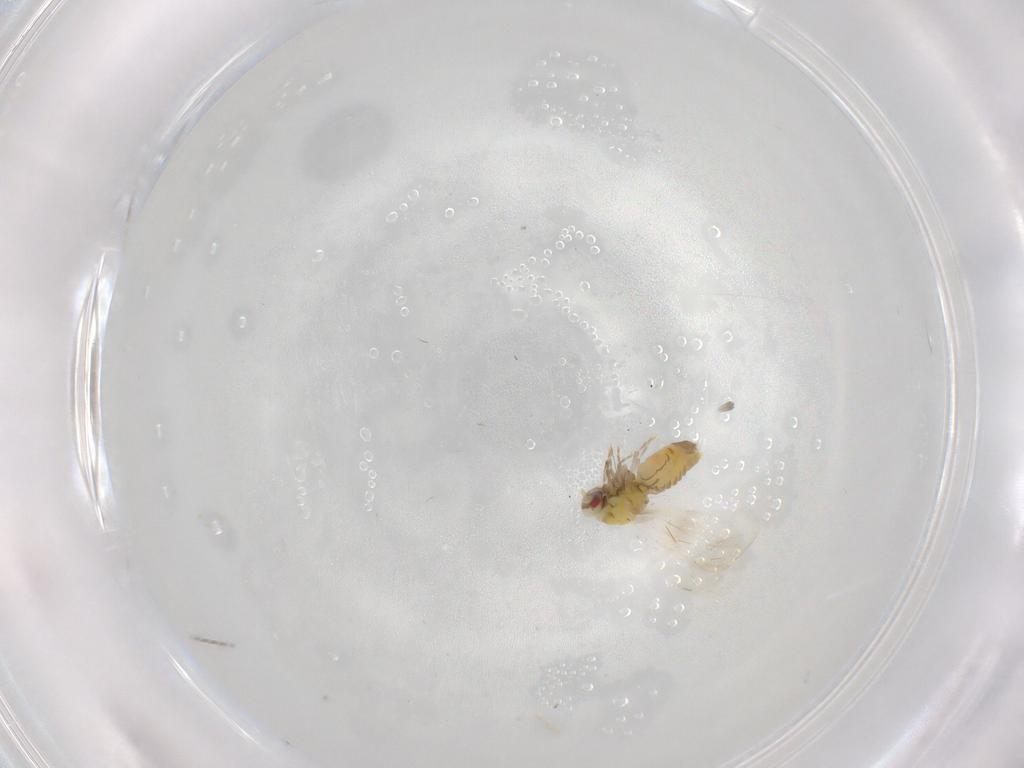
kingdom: Animalia
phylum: Arthropoda
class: Insecta
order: Hemiptera
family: Aleyrodidae
